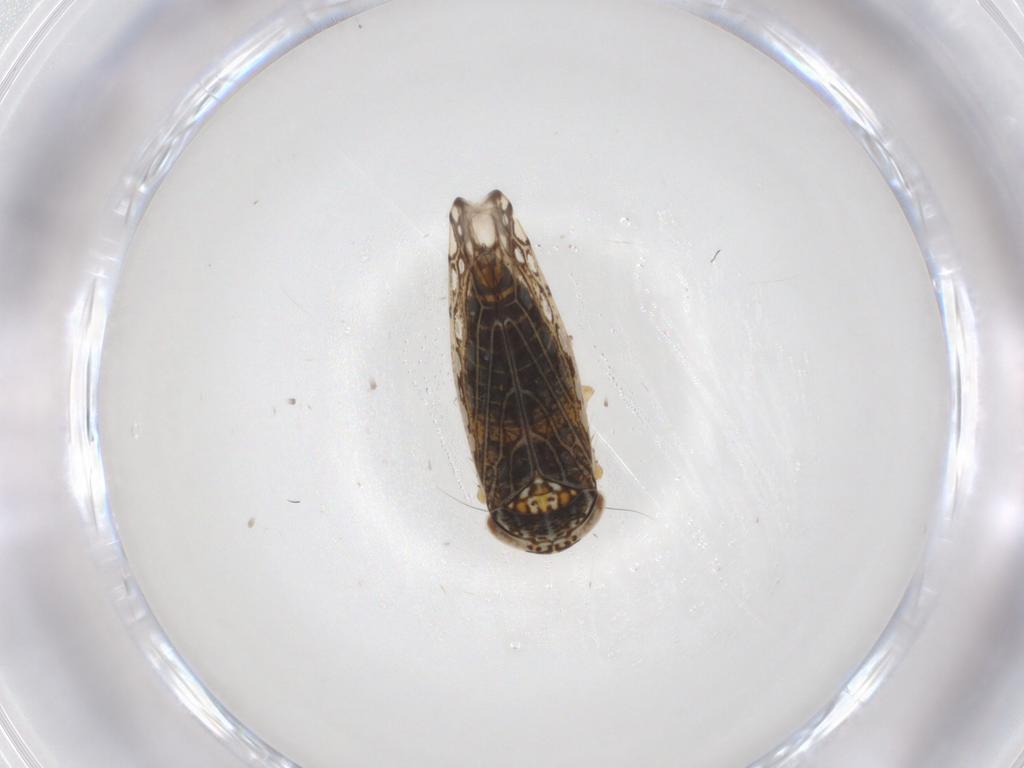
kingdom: Animalia
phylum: Arthropoda
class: Insecta
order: Hemiptera
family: Cicadellidae
